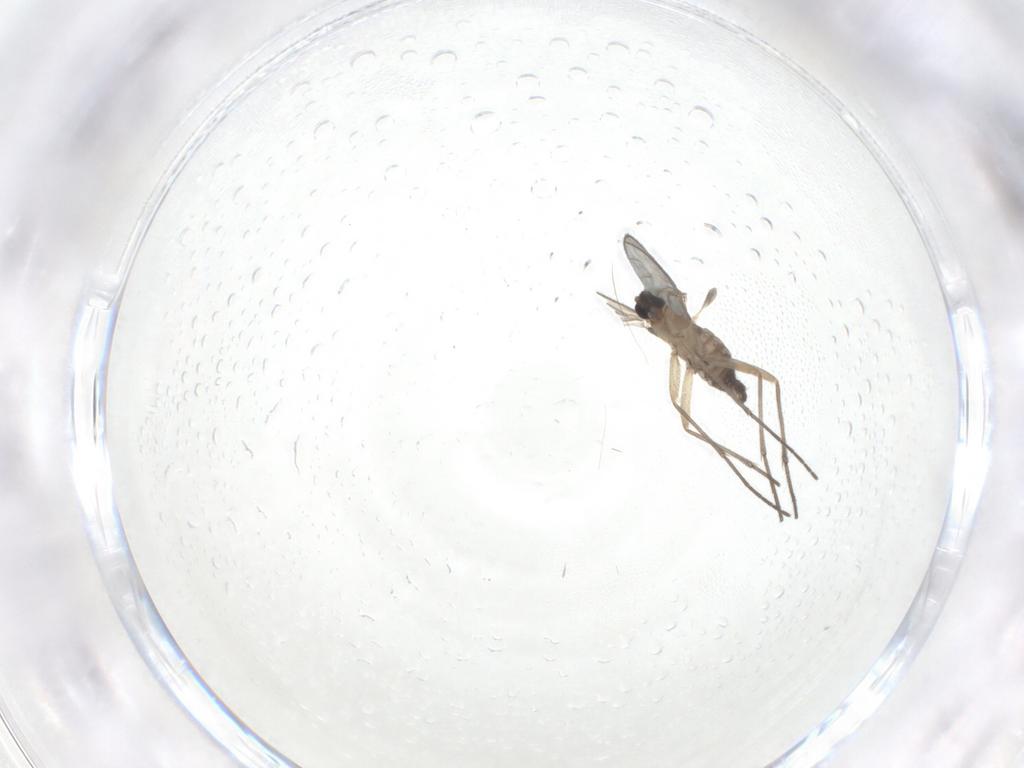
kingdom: Animalia
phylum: Arthropoda
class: Insecta
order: Diptera
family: Sciaridae
